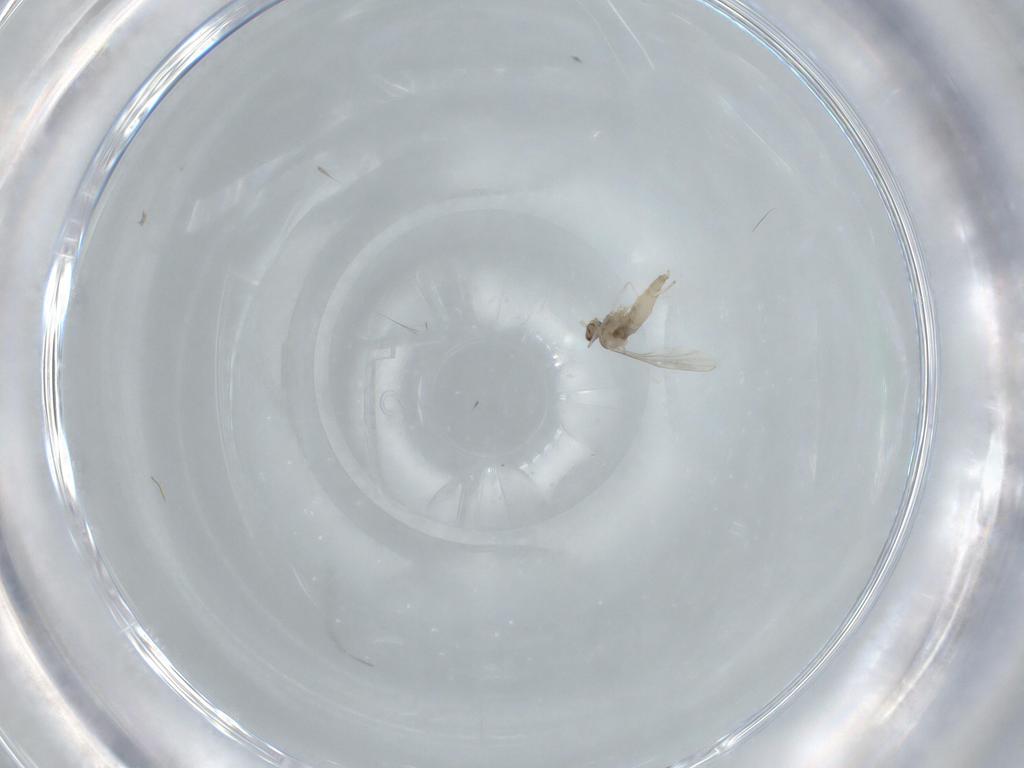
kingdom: Animalia
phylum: Arthropoda
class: Insecta
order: Diptera
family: Cecidomyiidae
